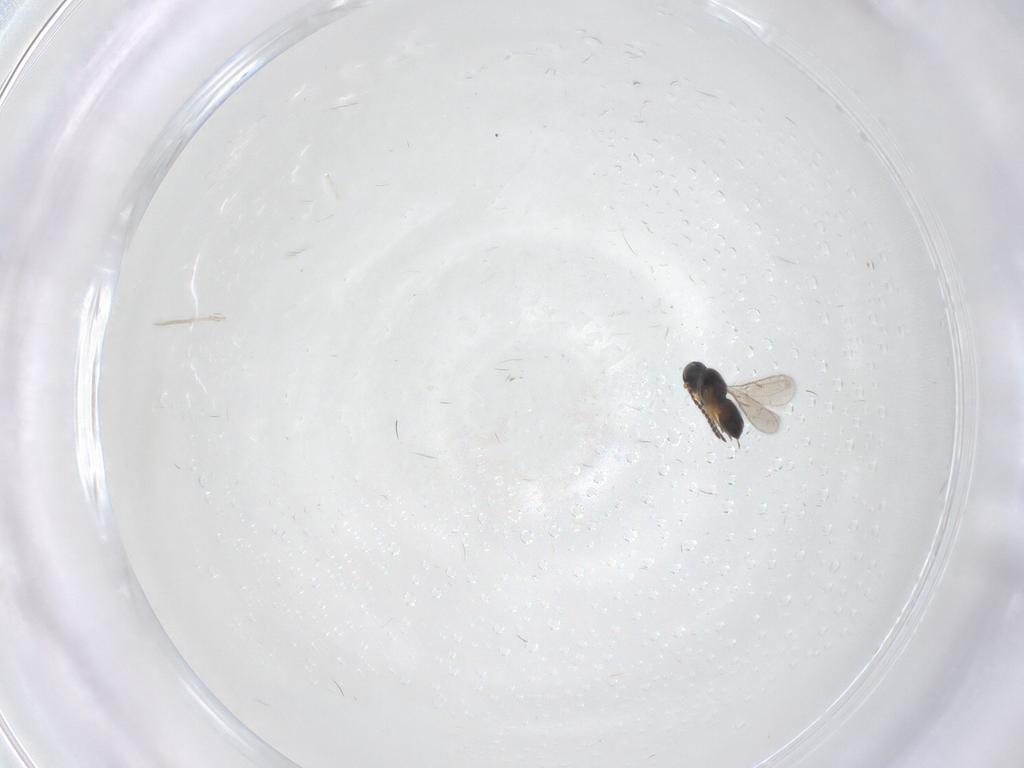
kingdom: Animalia
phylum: Arthropoda
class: Insecta
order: Hymenoptera
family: Scelionidae
